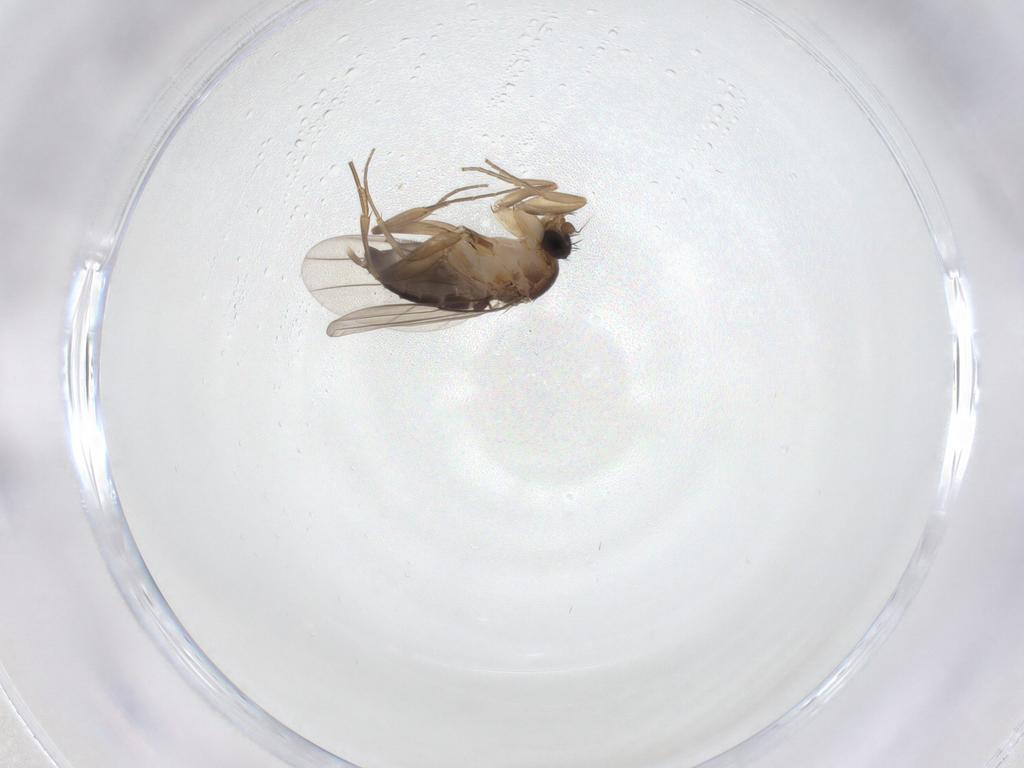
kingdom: Animalia
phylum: Arthropoda
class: Insecta
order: Diptera
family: Phoridae
